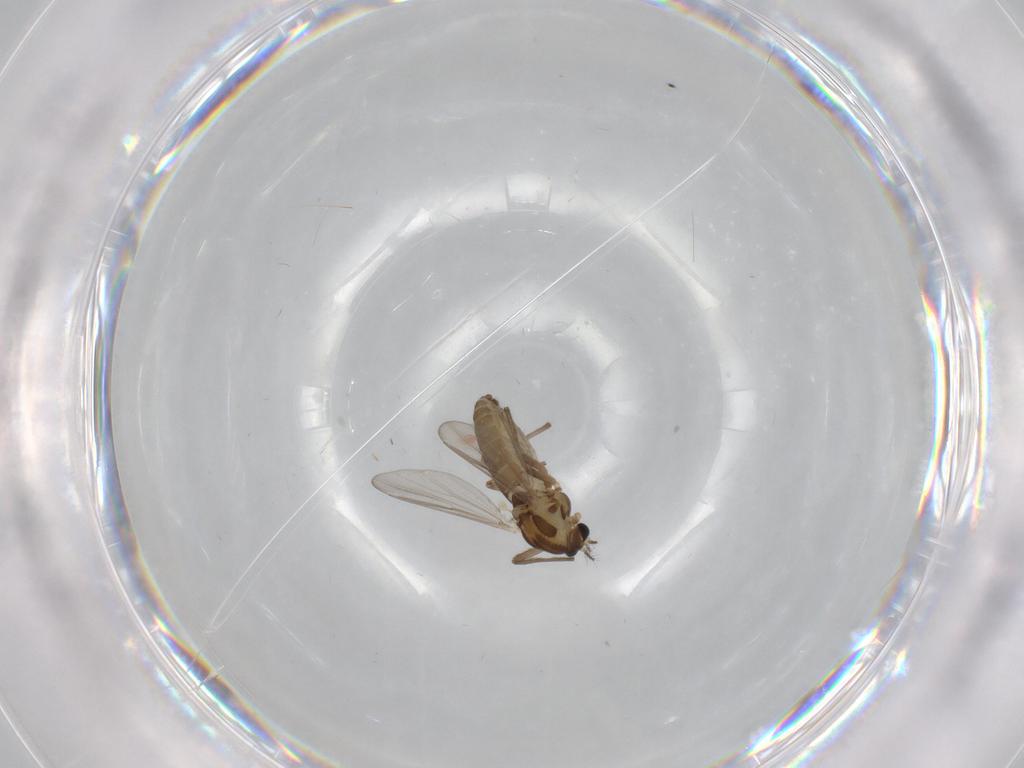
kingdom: Animalia
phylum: Arthropoda
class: Insecta
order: Diptera
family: Chironomidae
